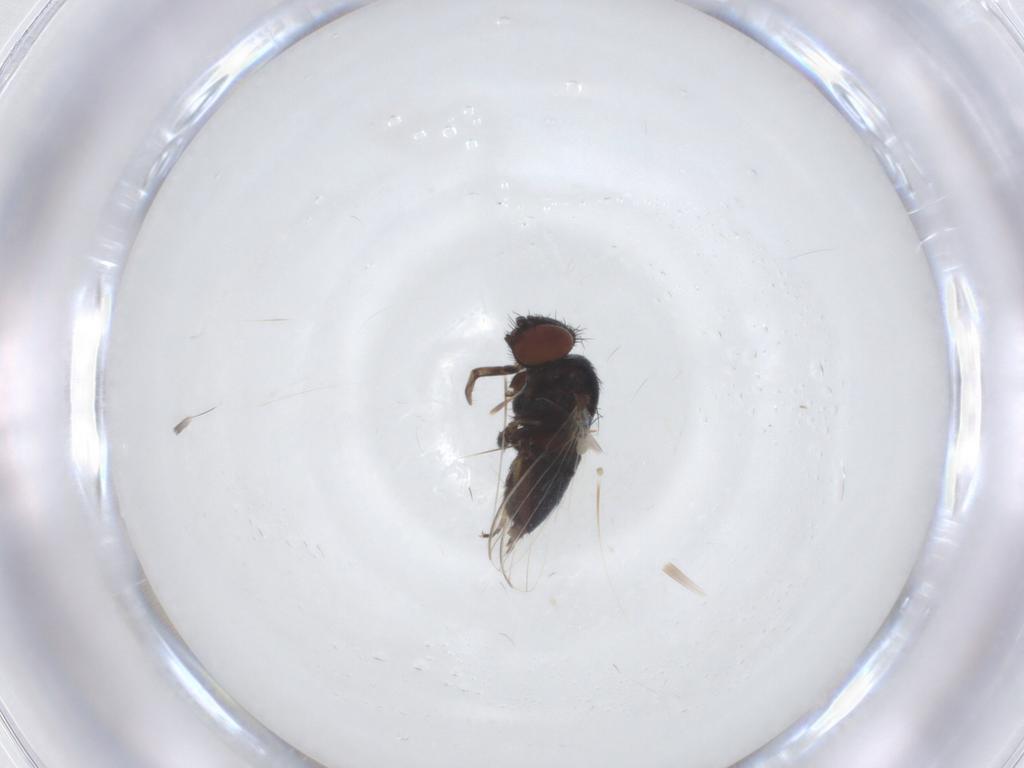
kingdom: Animalia
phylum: Arthropoda
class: Insecta
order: Diptera
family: Milichiidae
